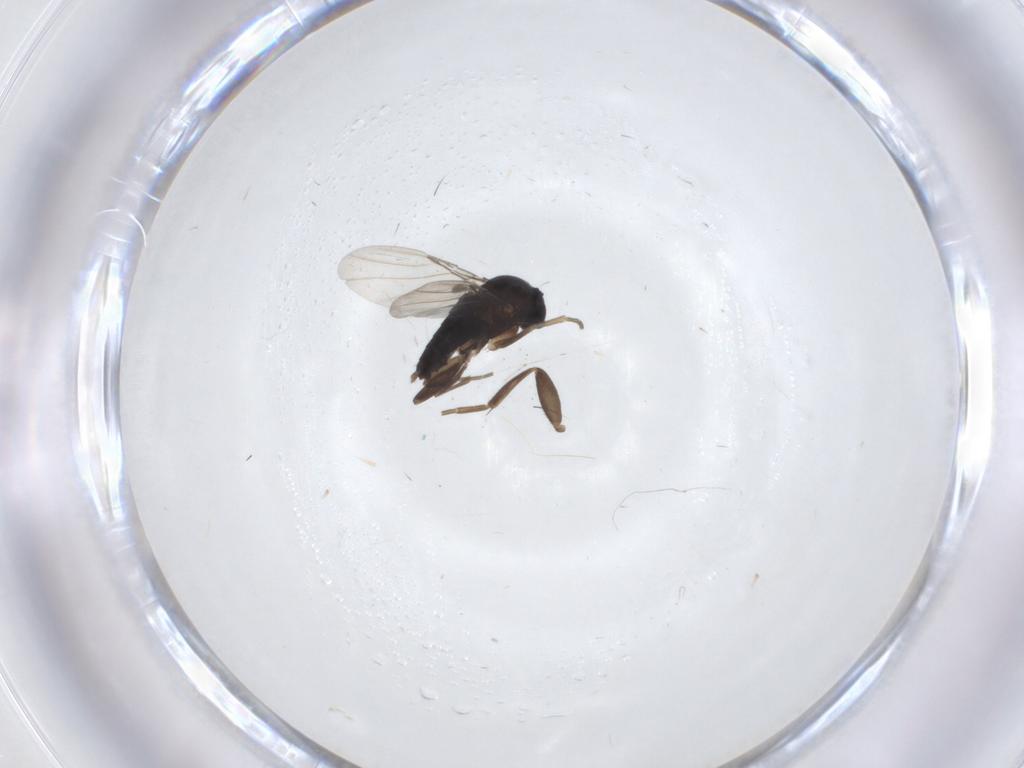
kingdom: Animalia
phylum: Arthropoda
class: Insecta
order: Diptera
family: Phoridae
